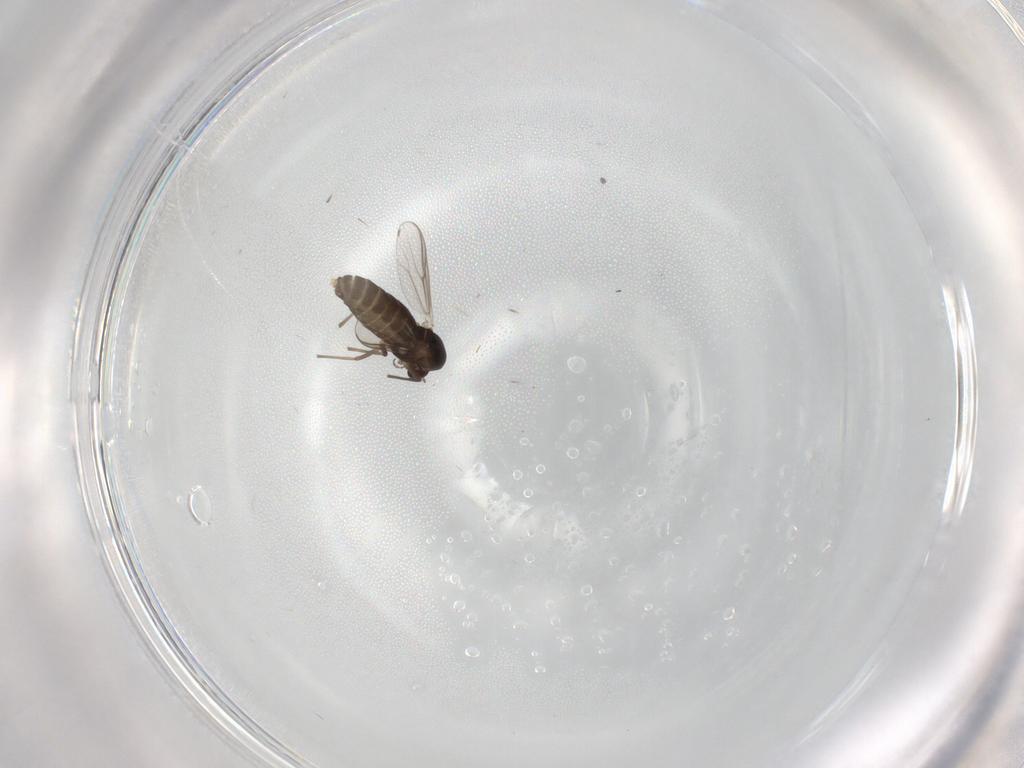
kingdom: Animalia
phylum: Arthropoda
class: Insecta
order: Diptera
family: Chironomidae
